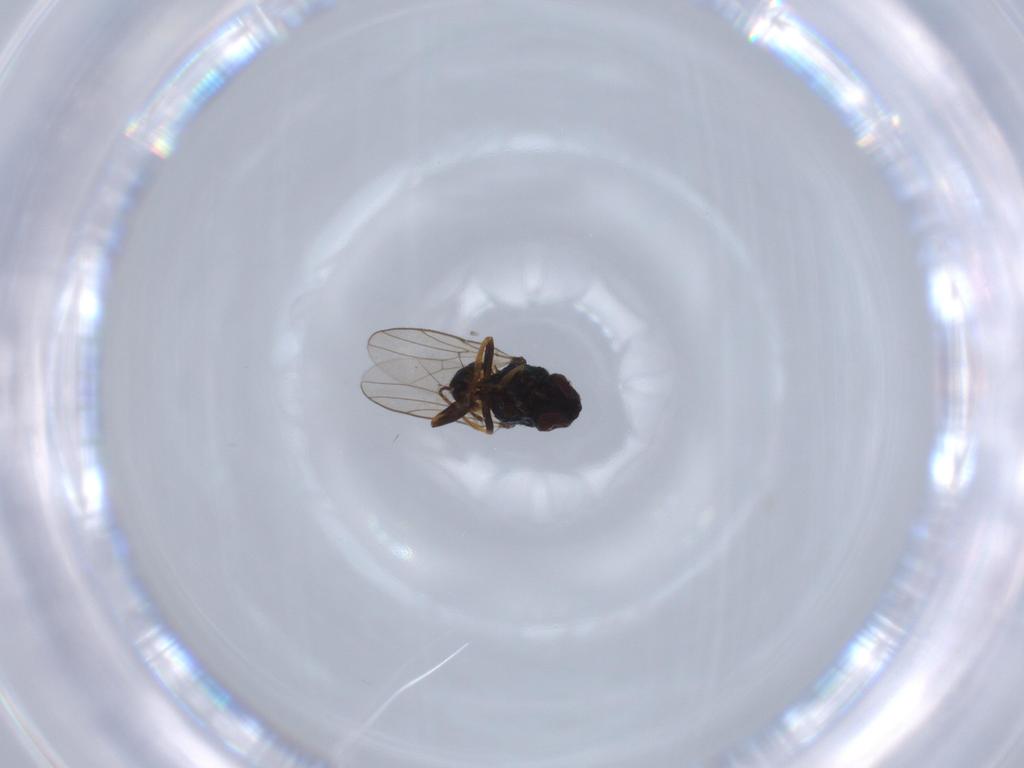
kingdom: Animalia
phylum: Arthropoda
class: Insecta
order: Diptera
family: Chloropidae
